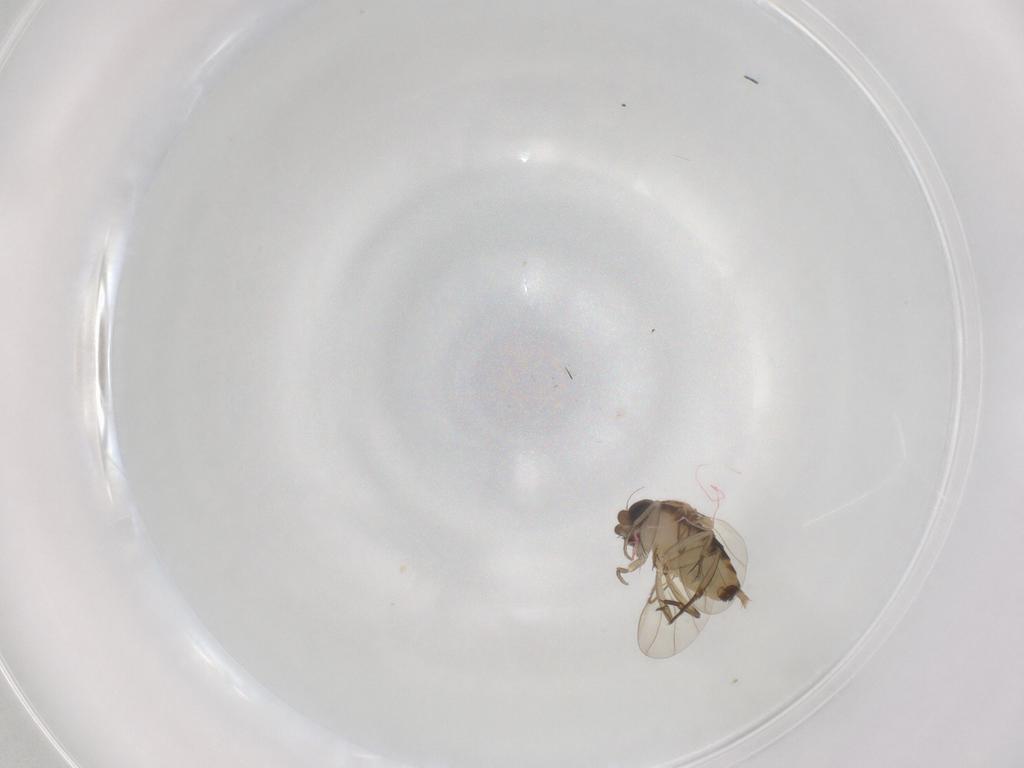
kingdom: Animalia
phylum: Arthropoda
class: Insecta
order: Diptera
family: Phoridae
